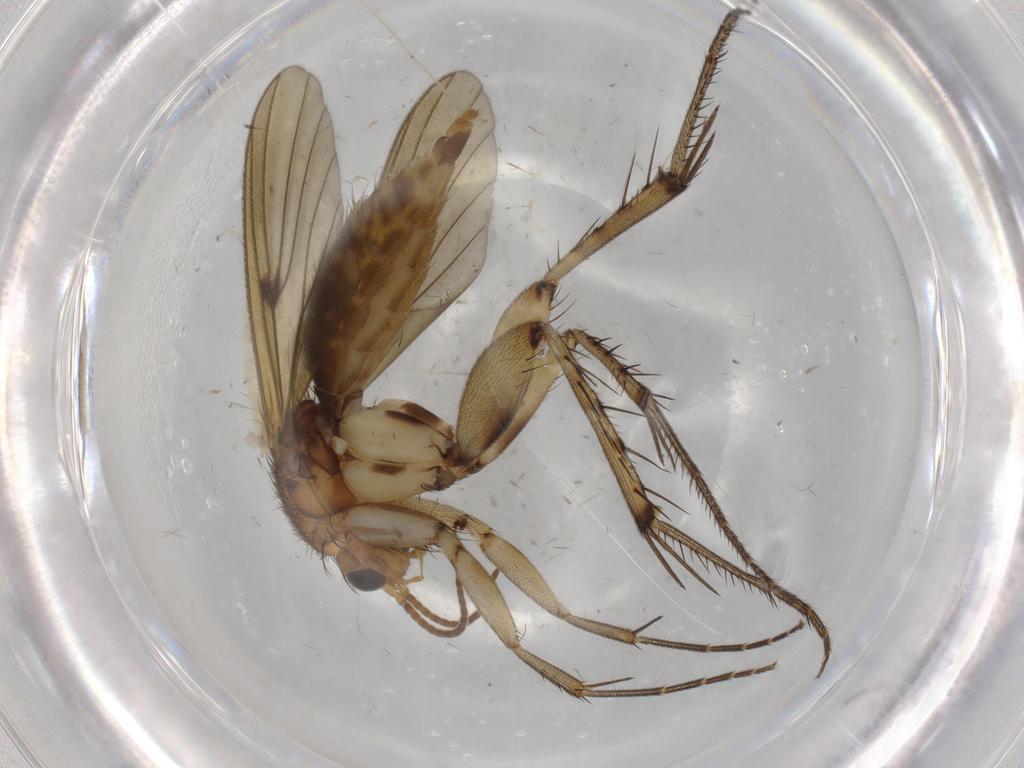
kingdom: Animalia
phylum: Arthropoda
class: Insecta
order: Diptera
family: Cecidomyiidae
